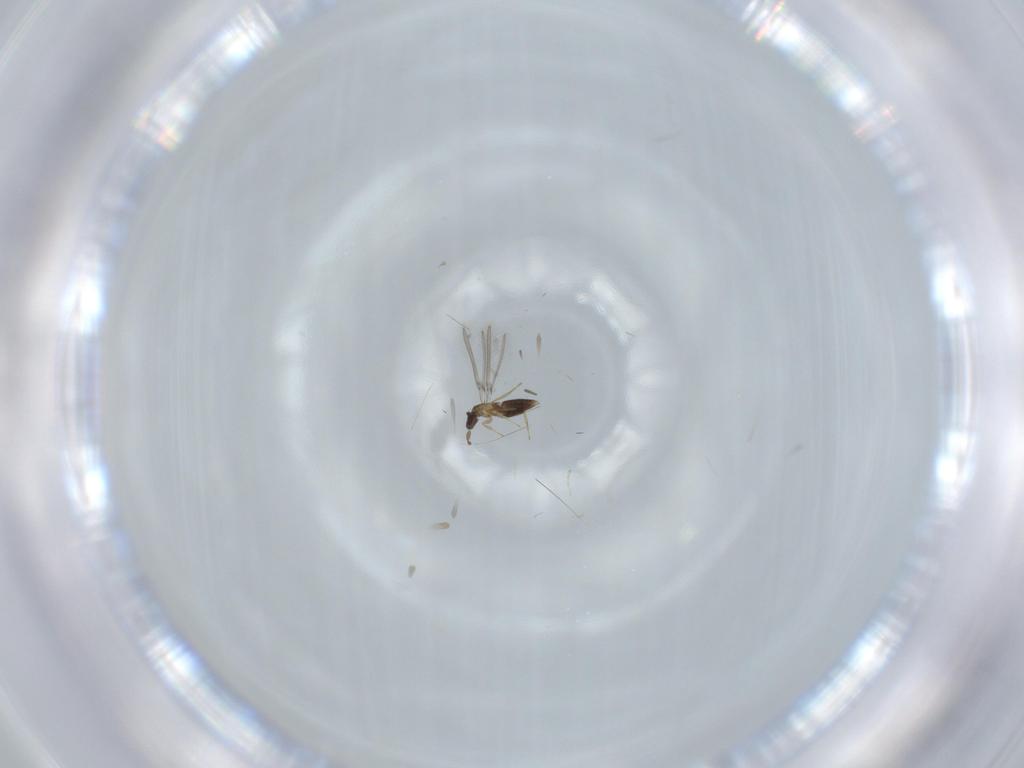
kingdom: Animalia
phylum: Arthropoda
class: Insecta
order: Hymenoptera
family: Mymaridae
